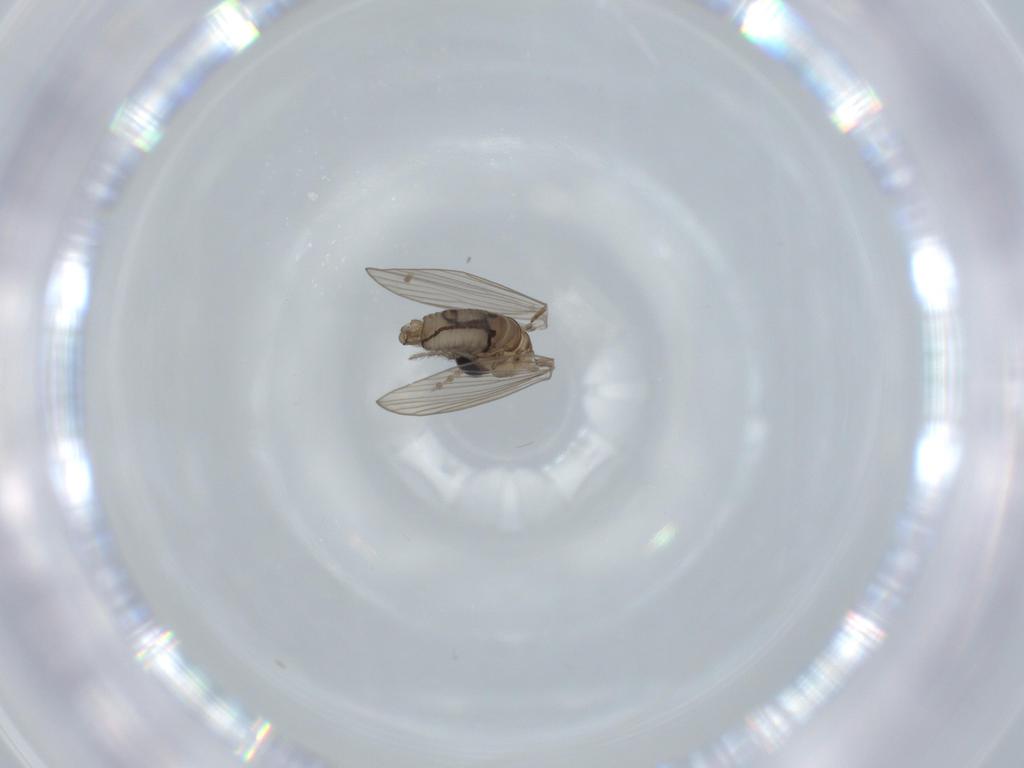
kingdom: Animalia
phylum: Arthropoda
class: Insecta
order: Diptera
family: Psychodidae
